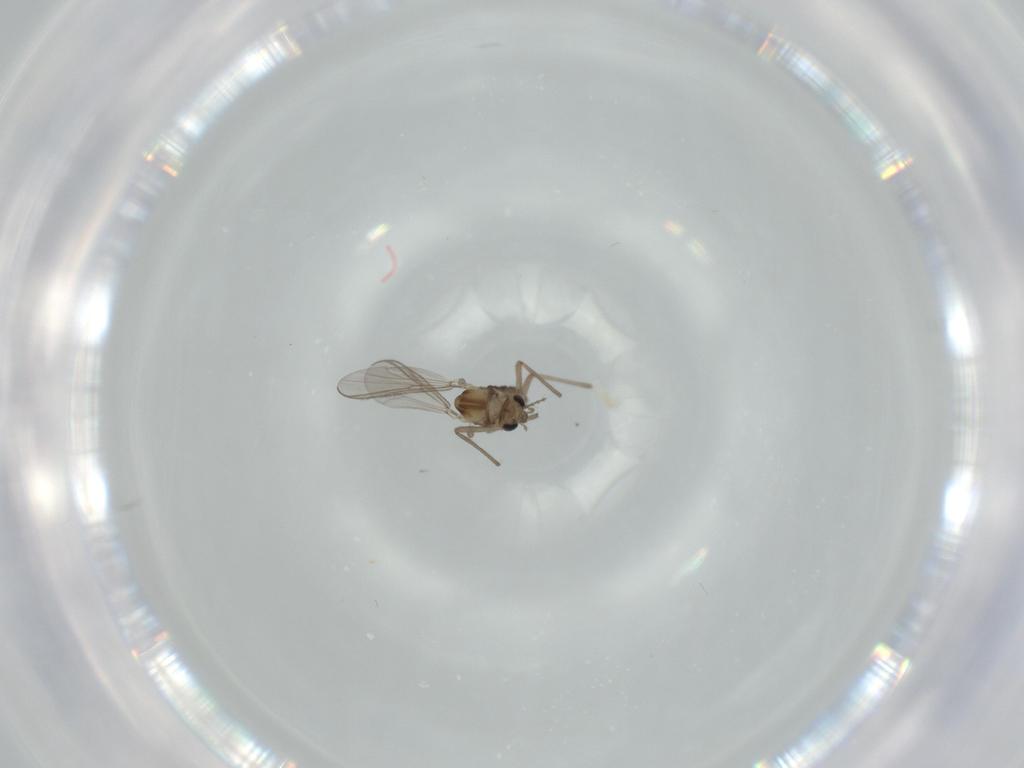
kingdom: Animalia
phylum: Arthropoda
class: Insecta
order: Diptera
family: Chironomidae
